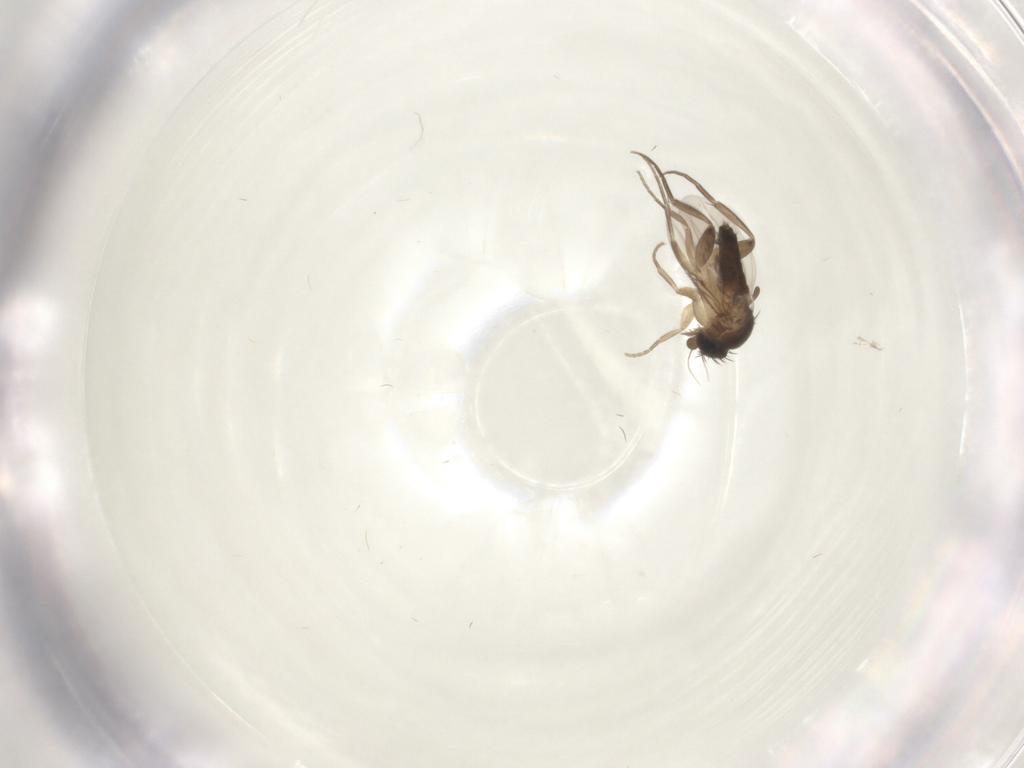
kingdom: Animalia
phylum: Arthropoda
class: Insecta
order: Diptera
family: Phoridae
